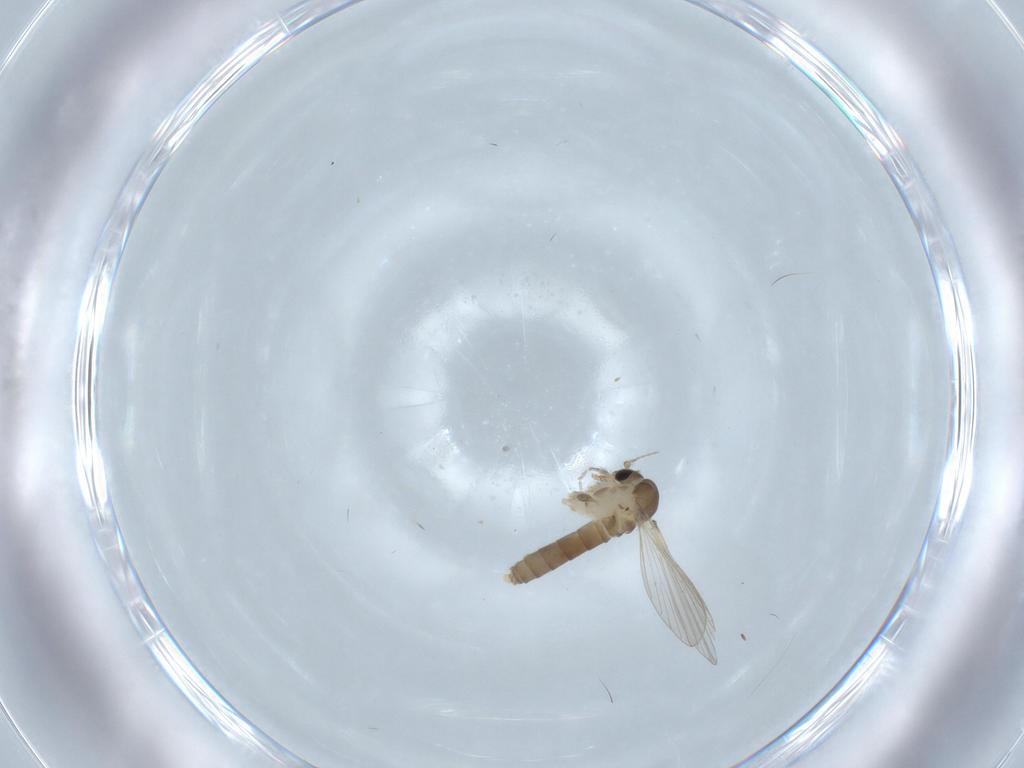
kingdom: Animalia
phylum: Arthropoda
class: Insecta
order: Diptera
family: Psychodidae
